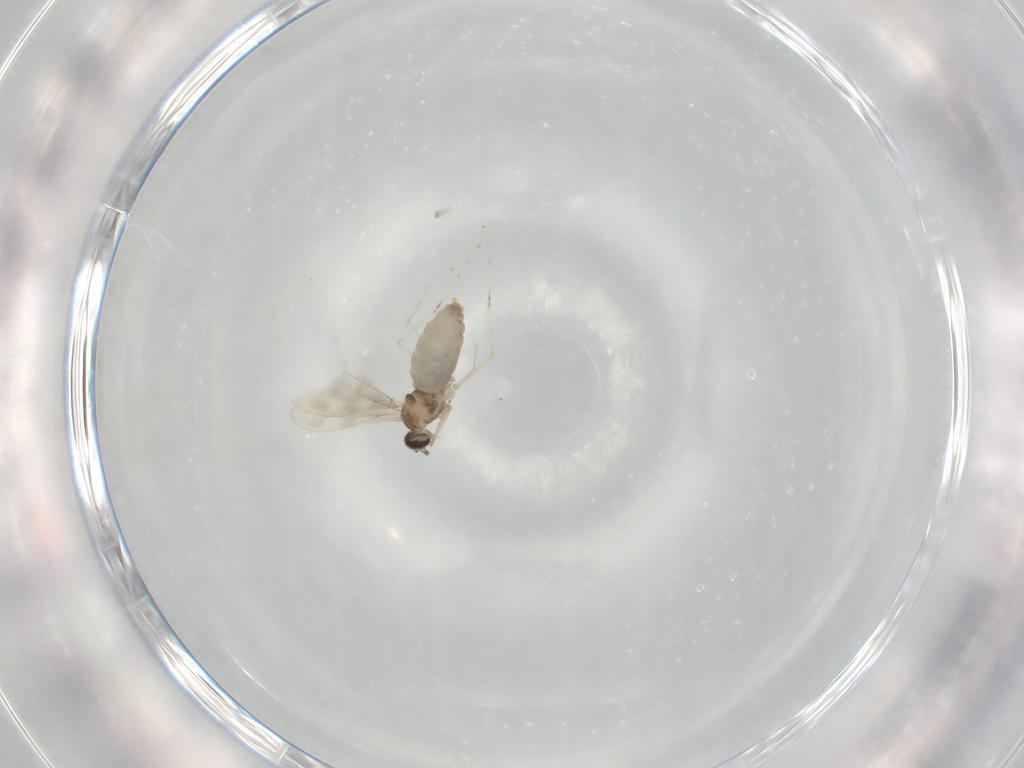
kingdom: Animalia
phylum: Arthropoda
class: Insecta
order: Diptera
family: Cecidomyiidae
